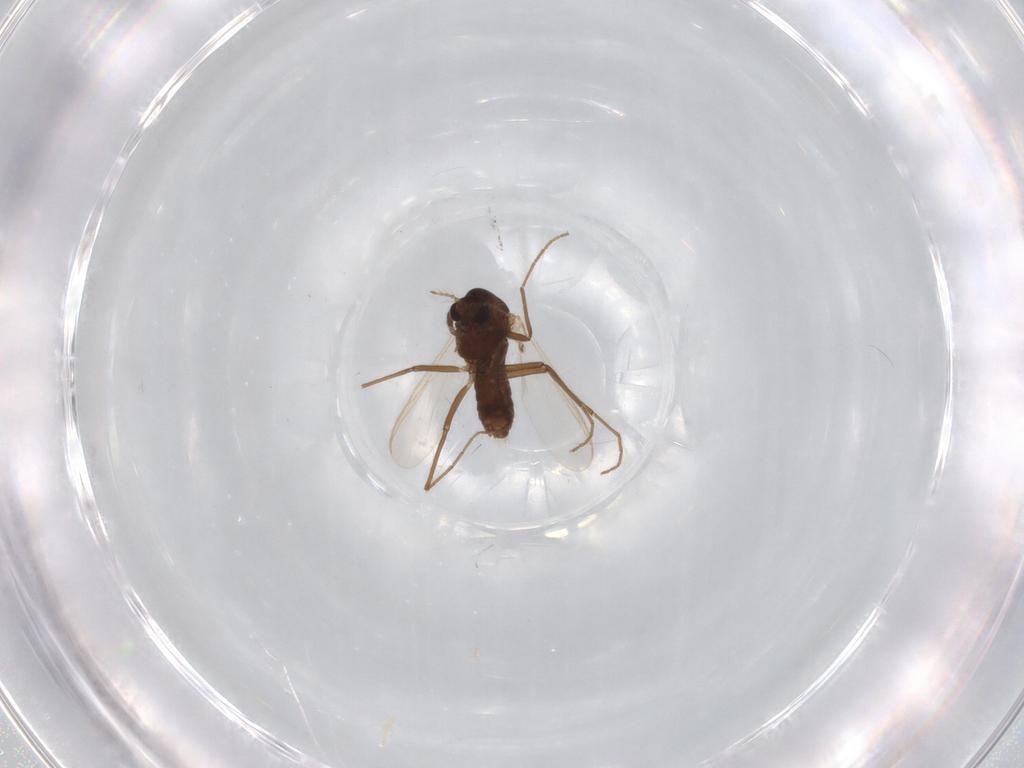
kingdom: Animalia
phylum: Arthropoda
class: Insecta
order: Diptera
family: Chironomidae
